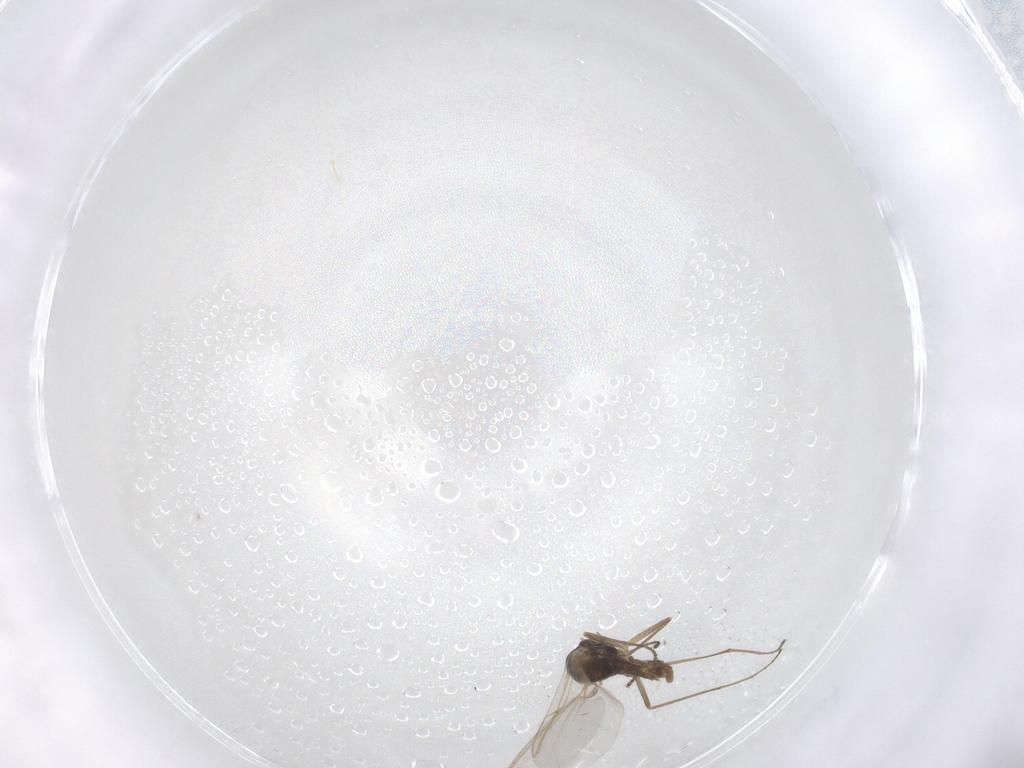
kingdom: Animalia
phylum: Arthropoda
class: Insecta
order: Diptera
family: Cecidomyiidae
